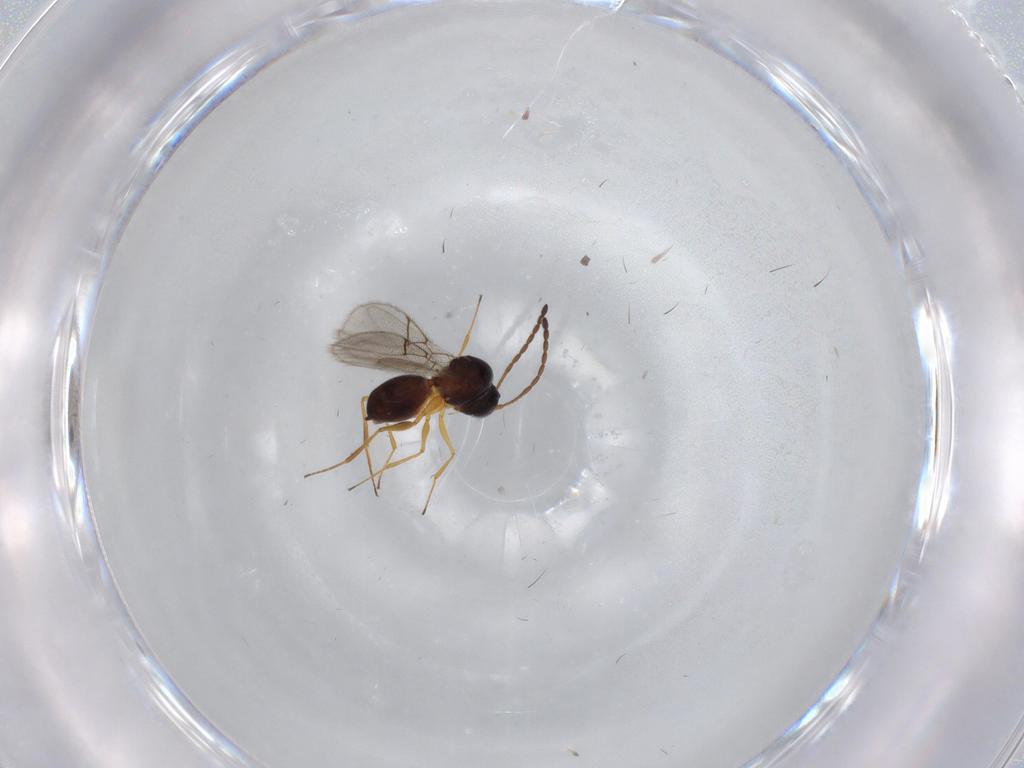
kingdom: Animalia
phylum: Arthropoda
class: Insecta
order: Hymenoptera
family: Figitidae
